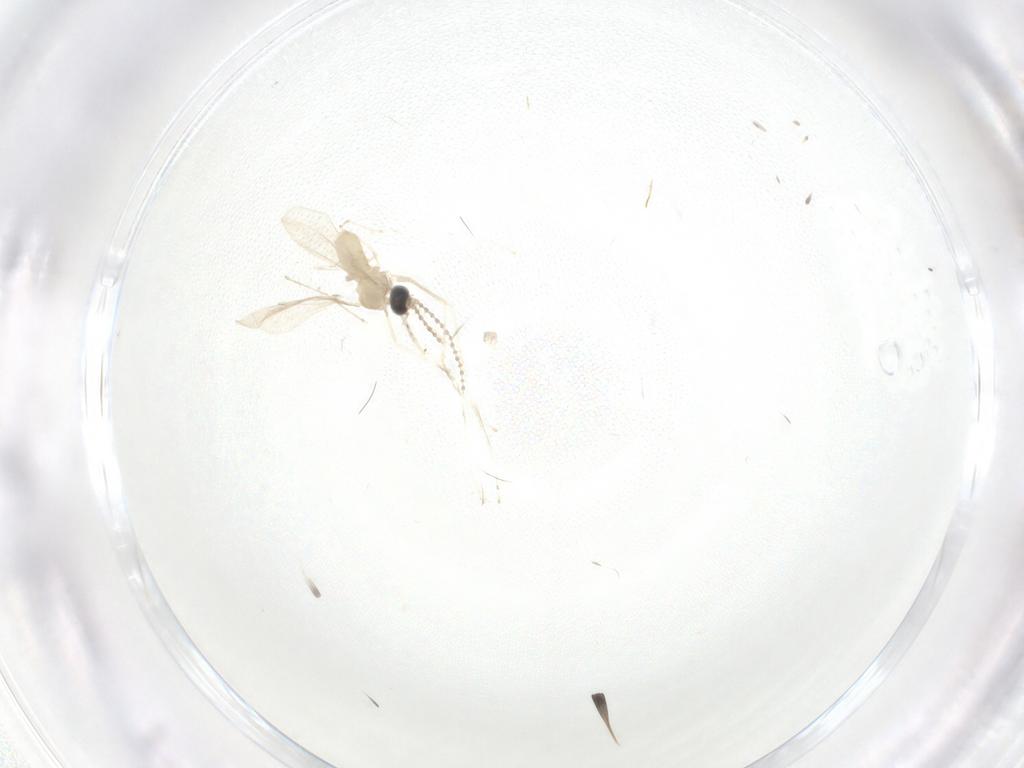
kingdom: Animalia
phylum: Arthropoda
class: Insecta
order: Diptera
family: Cecidomyiidae
